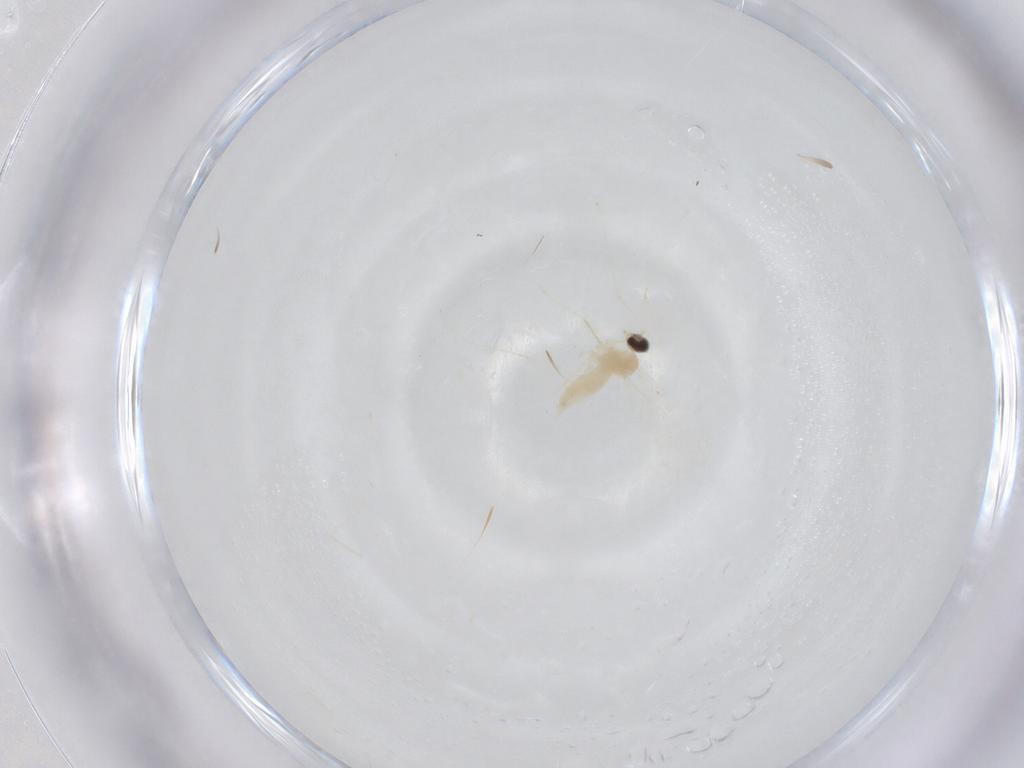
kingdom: Animalia
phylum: Arthropoda
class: Insecta
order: Diptera
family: Cecidomyiidae
